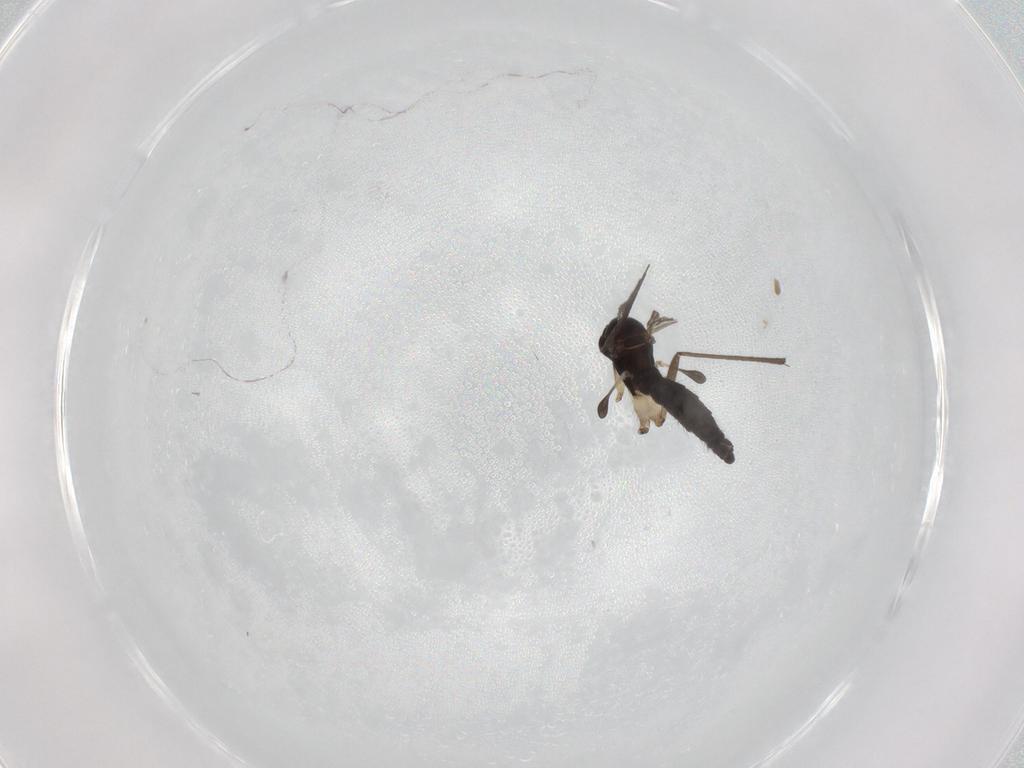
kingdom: Animalia
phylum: Arthropoda
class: Insecta
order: Diptera
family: Sciaridae
